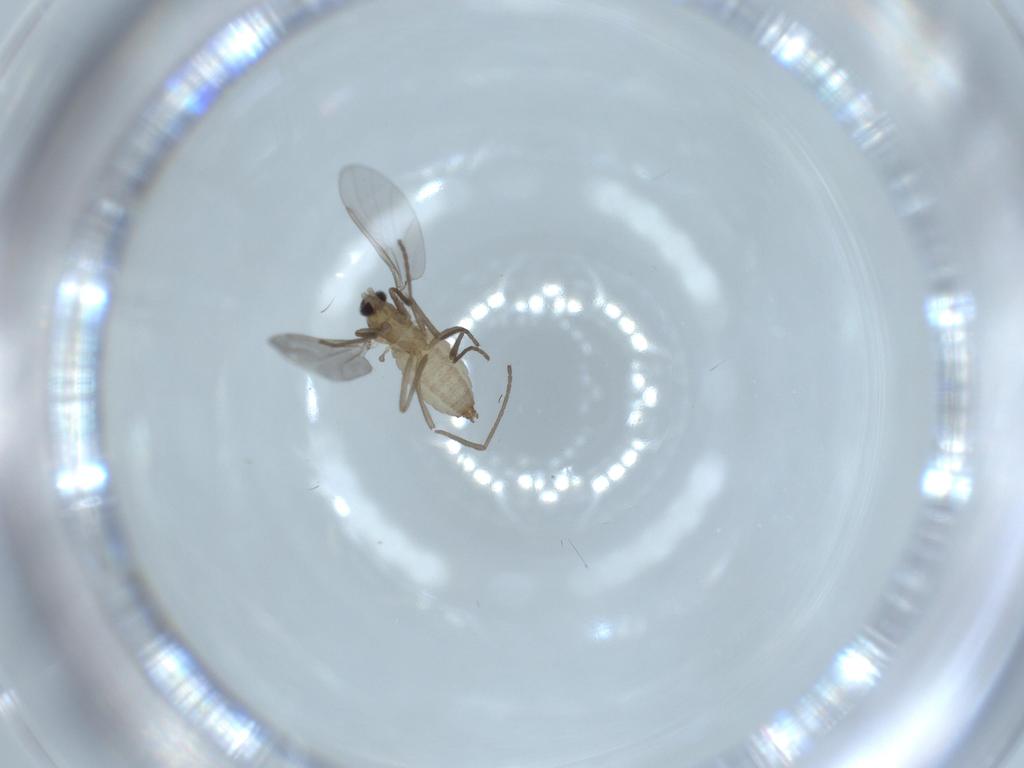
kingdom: Animalia
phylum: Arthropoda
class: Insecta
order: Diptera
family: Cecidomyiidae
